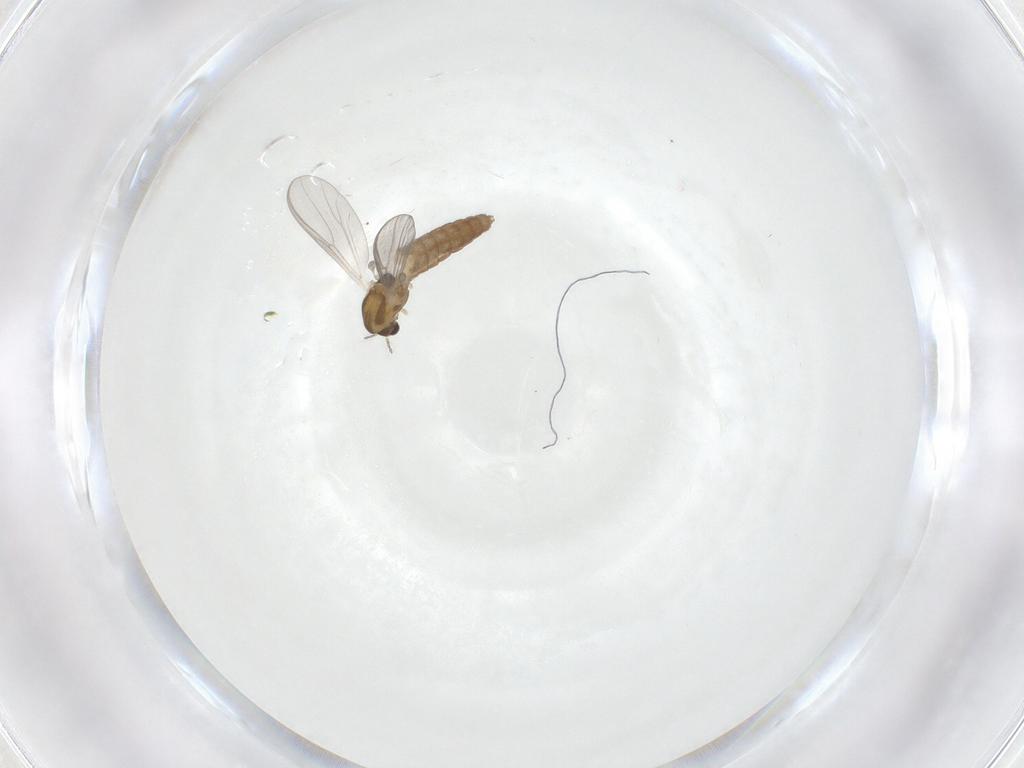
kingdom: Animalia
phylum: Arthropoda
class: Insecta
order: Diptera
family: Chironomidae
